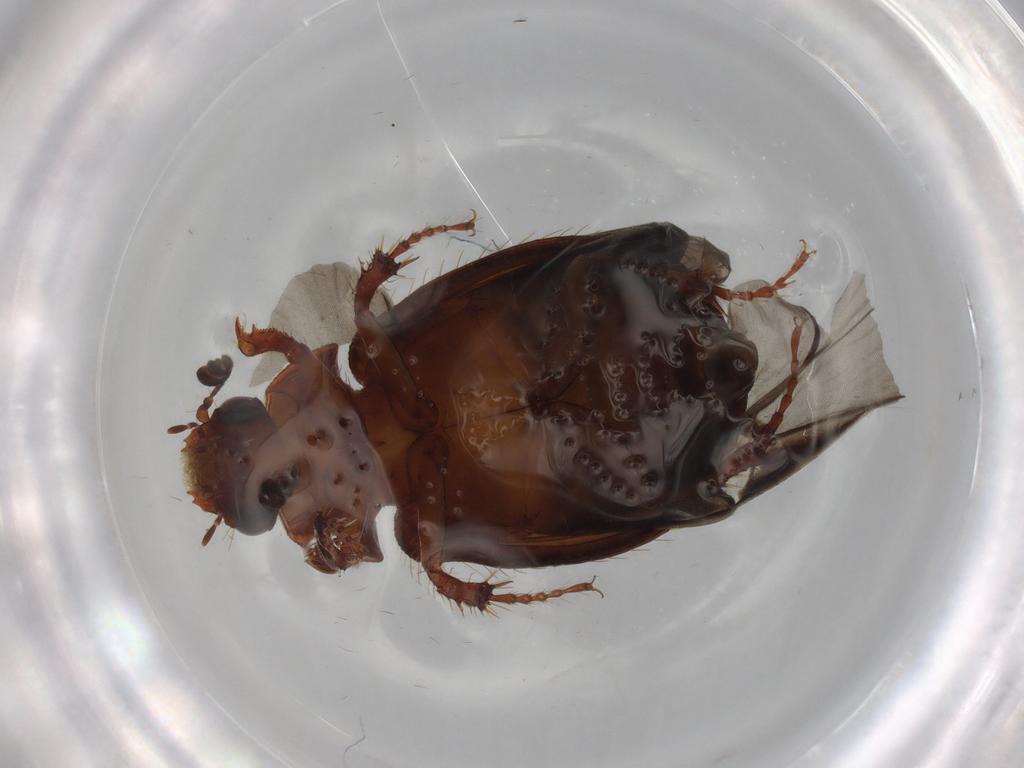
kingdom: Animalia
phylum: Arthropoda
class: Insecta
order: Coleoptera
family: Hybosoridae
